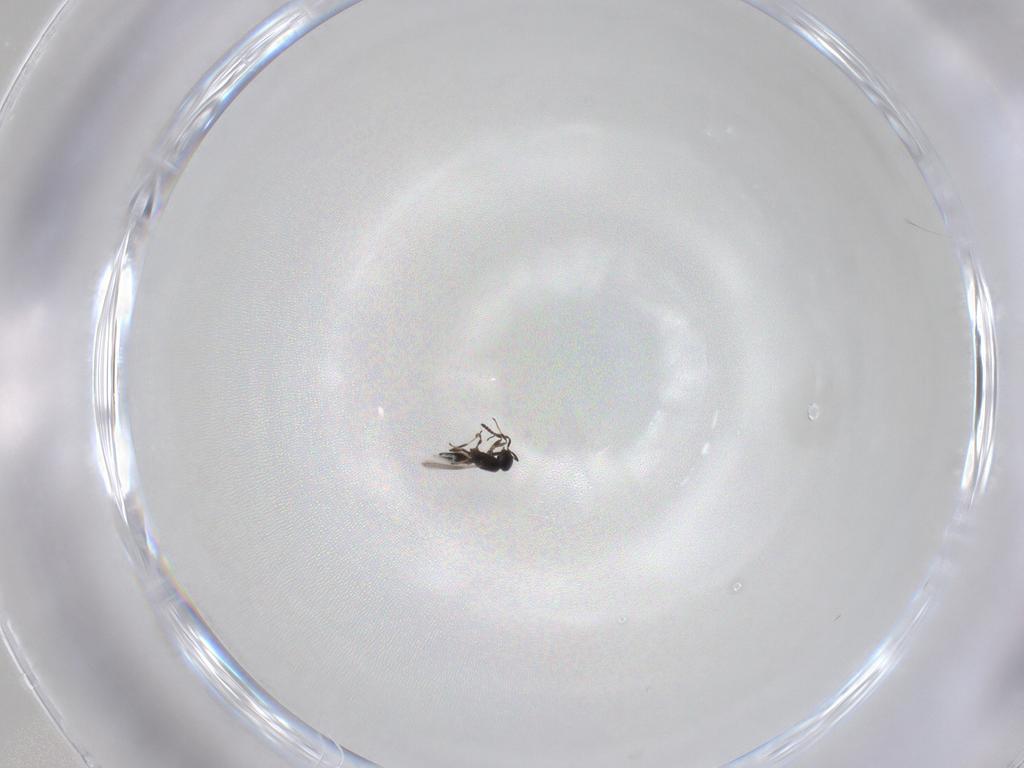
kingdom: Animalia
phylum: Arthropoda
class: Insecta
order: Hymenoptera
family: Scelionidae
